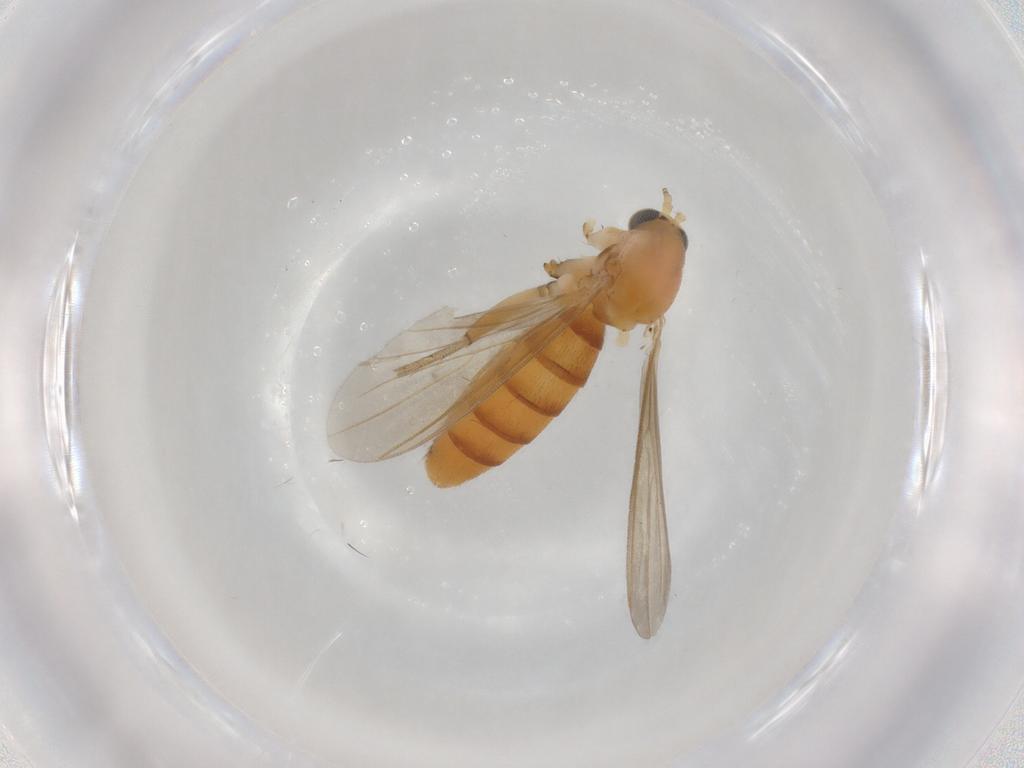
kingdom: Animalia
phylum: Arthropoda
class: Insecta
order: Diptera
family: Mycetophilidae
